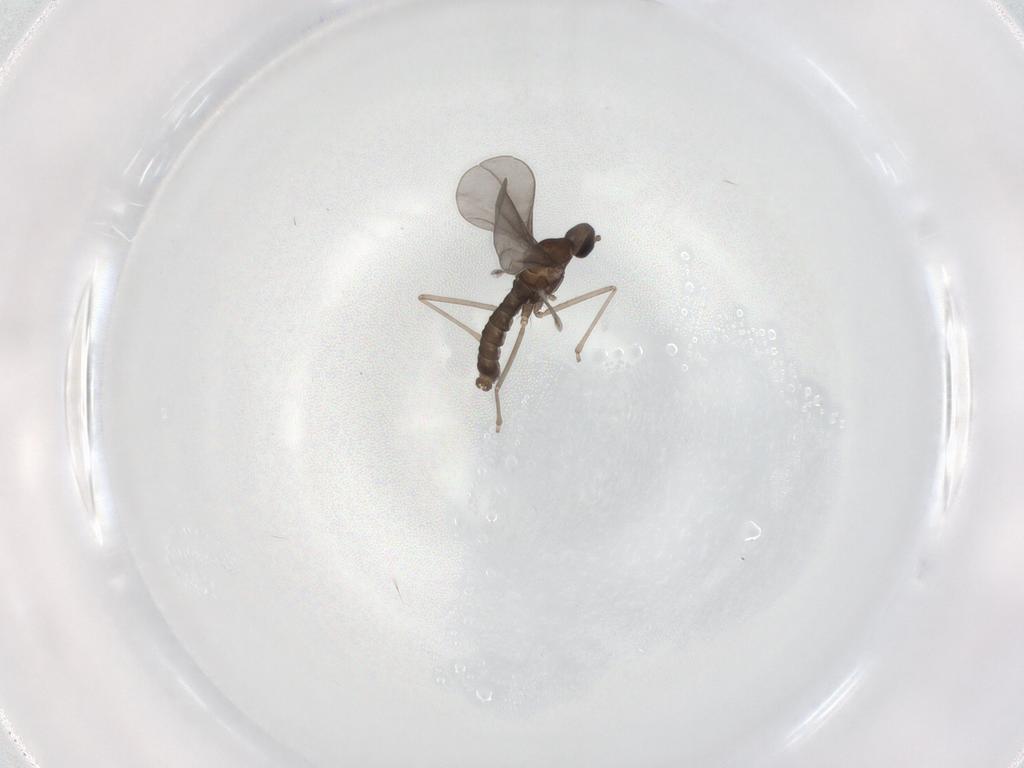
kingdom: Animalia
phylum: Arthropoda
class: Insecta
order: Diptera
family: Cecidomyiidae
